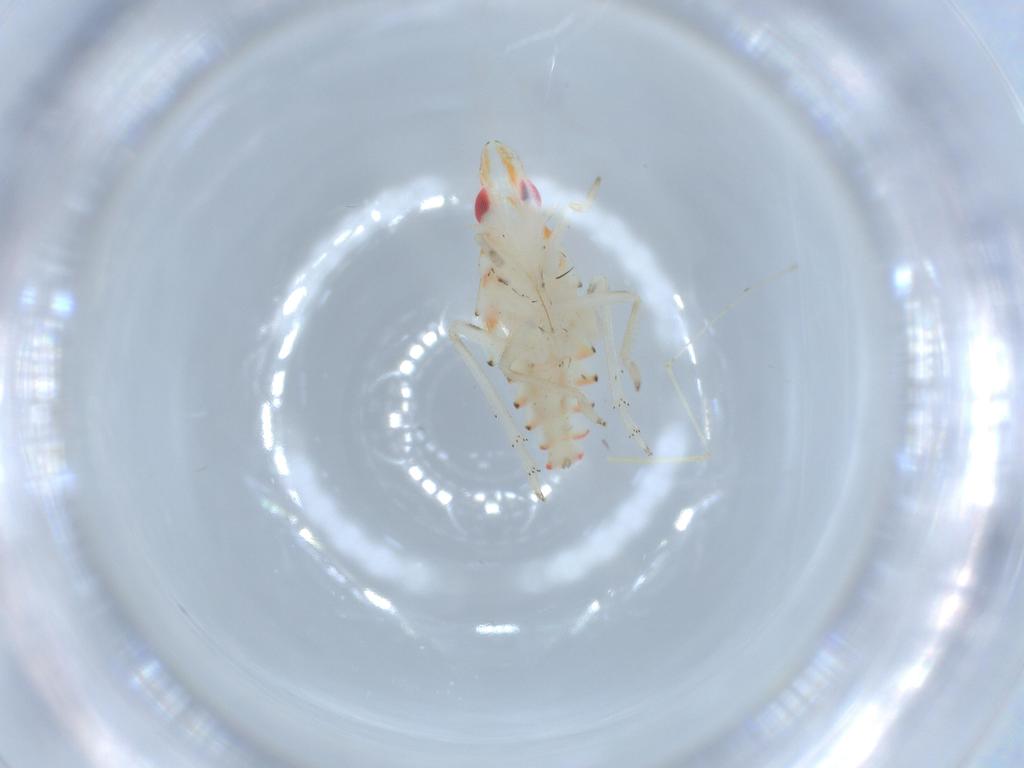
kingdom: Animalia
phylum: Arthropoda
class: Insecta
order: Hemiptera
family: Tropiduchidae
